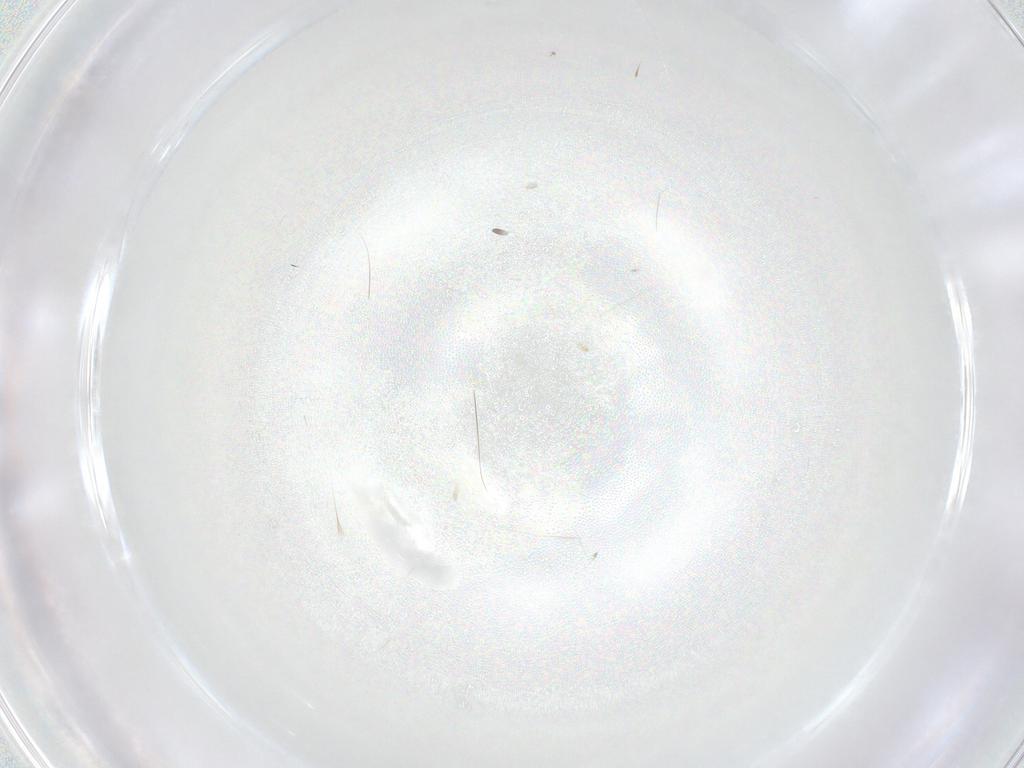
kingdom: Animalia
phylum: Arthropoda
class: Insecta
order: Lepidoptera
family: Erebidae
